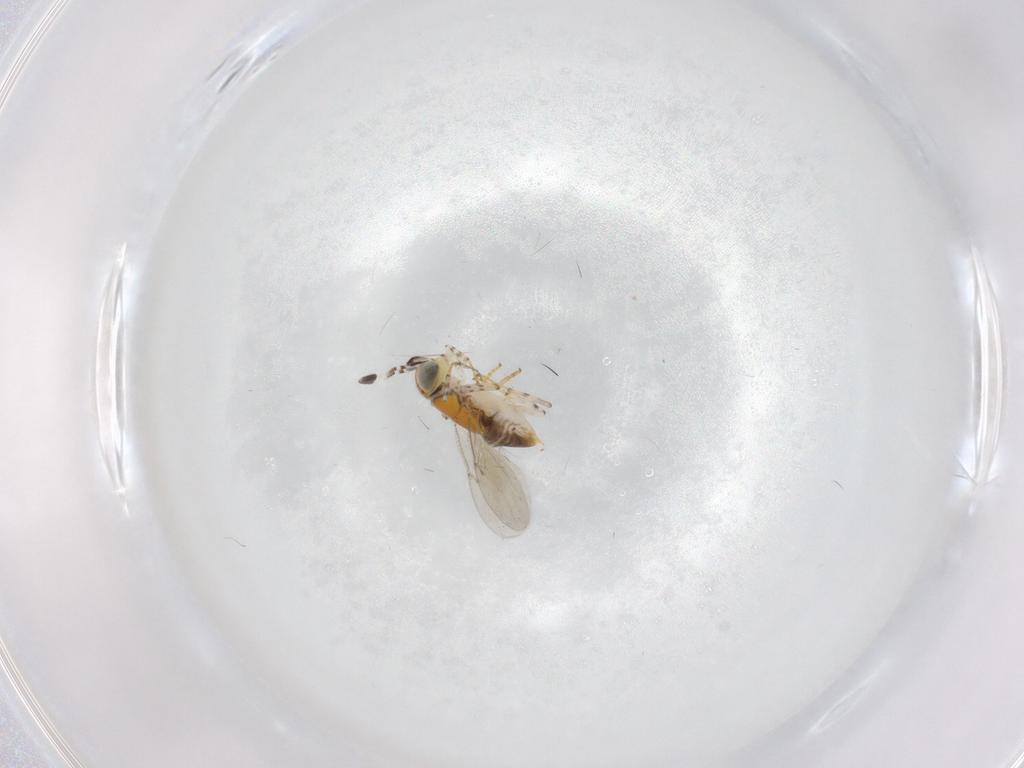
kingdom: Animalia
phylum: Arthropoda
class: Insecta
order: Hymenoptera
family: Encyrtidae
